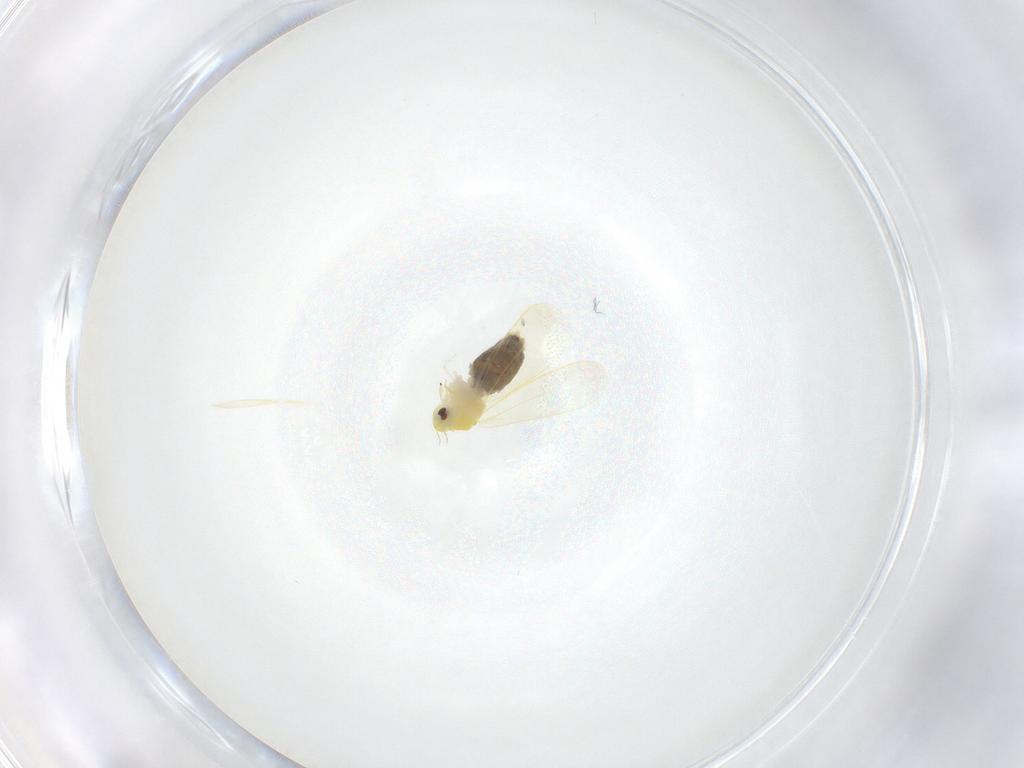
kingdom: Animalia
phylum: Arthropoda
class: Insecta
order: Hemiptera
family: Aleyrodidae
